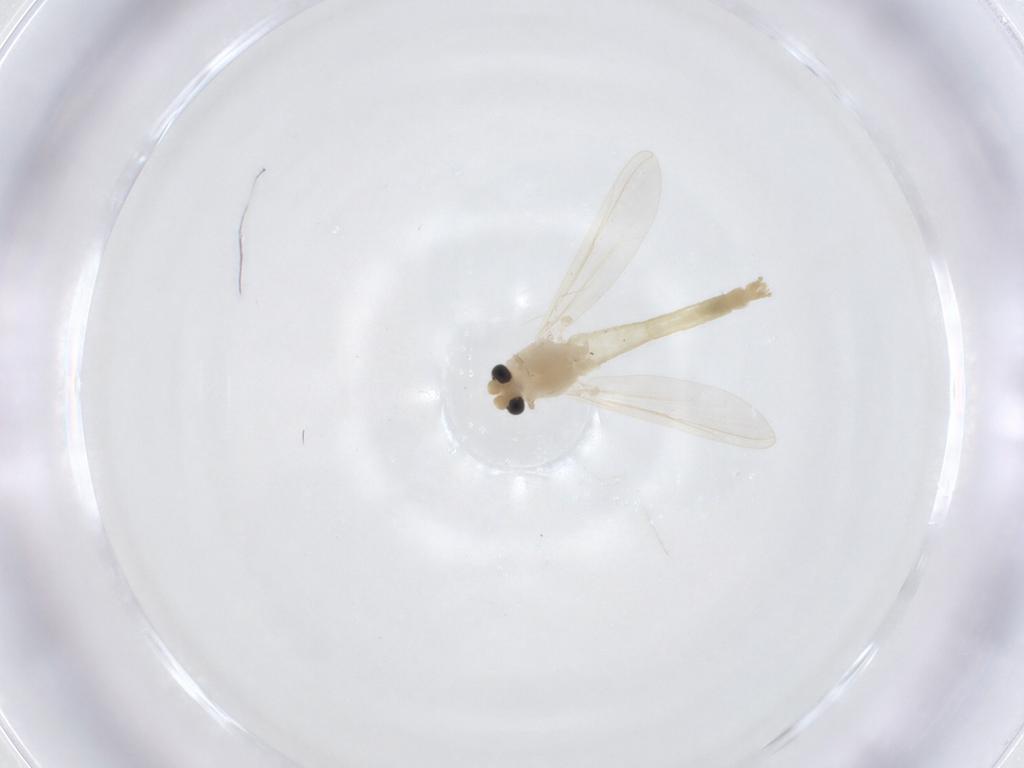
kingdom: Animalia
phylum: Arthropoda
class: Insecta
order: Diptera
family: Chironomidae
